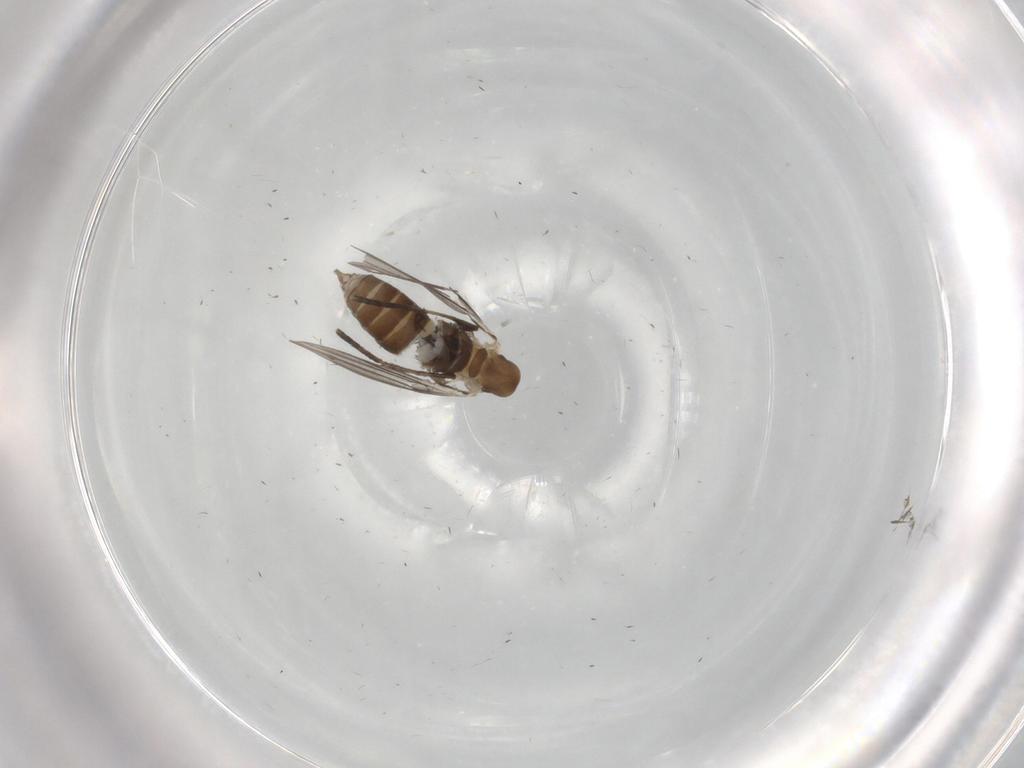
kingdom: Animalia
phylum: Arthropoda
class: Insecta
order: Diptera
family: Psychodidae
